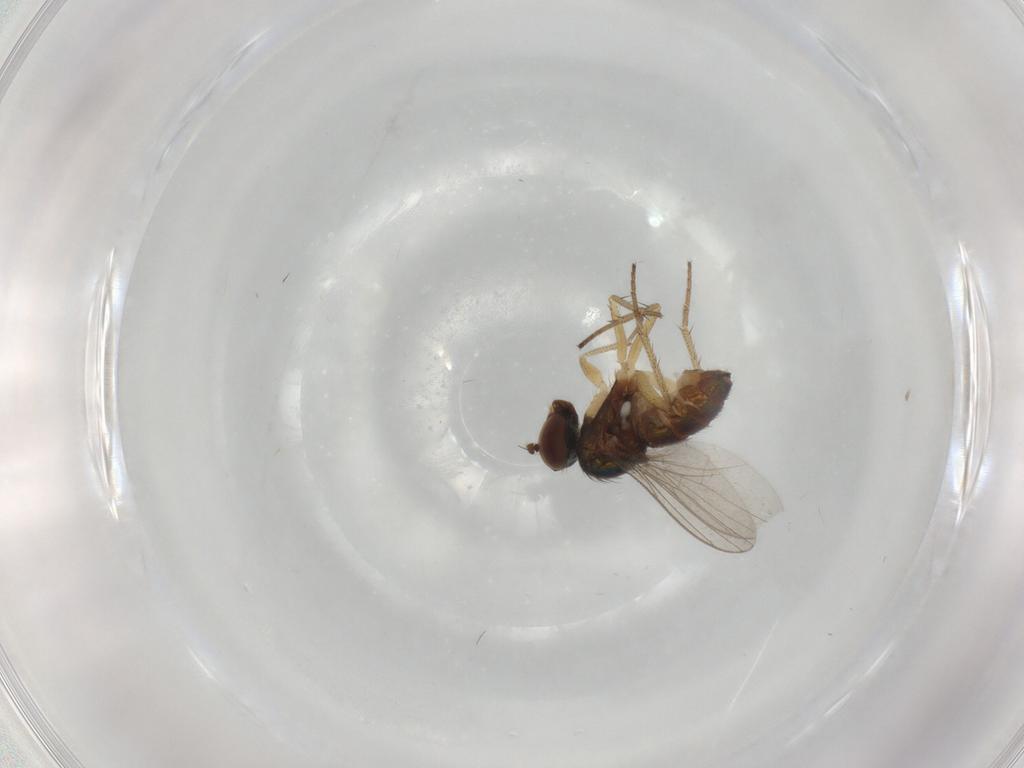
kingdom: Animalia
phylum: Arthropoda
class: Insecta
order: Diptera
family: Dolichopodidae
